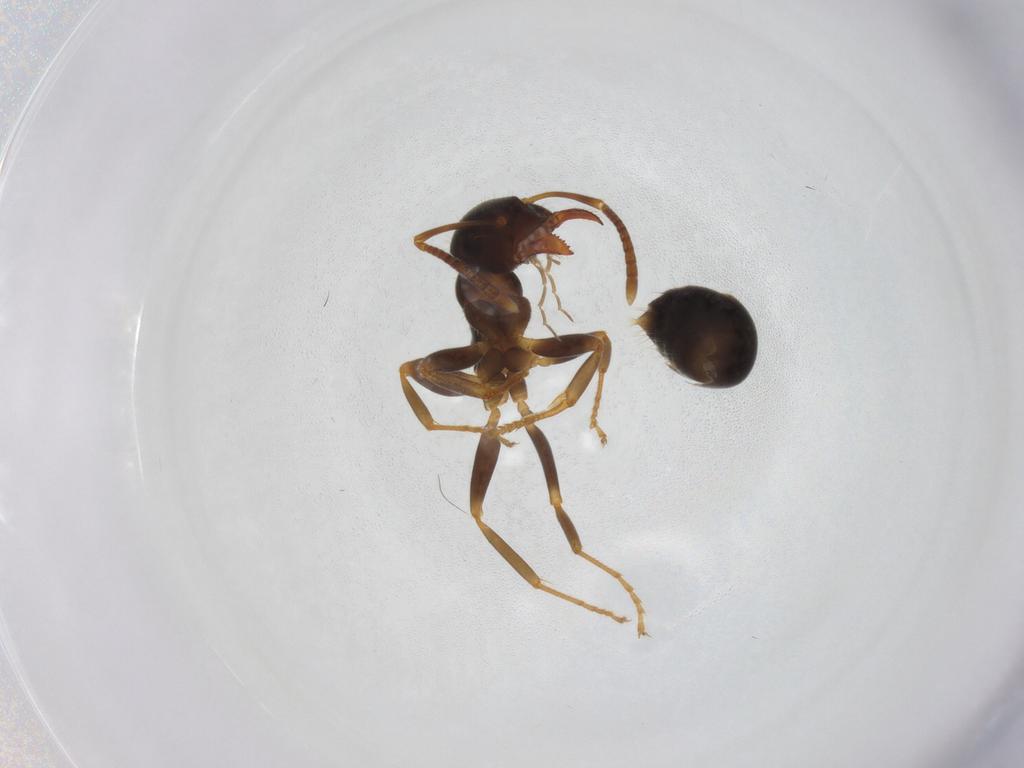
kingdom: Animalia
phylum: Arthropoda
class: Insecta
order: Hymenoptera
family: Formicidae
